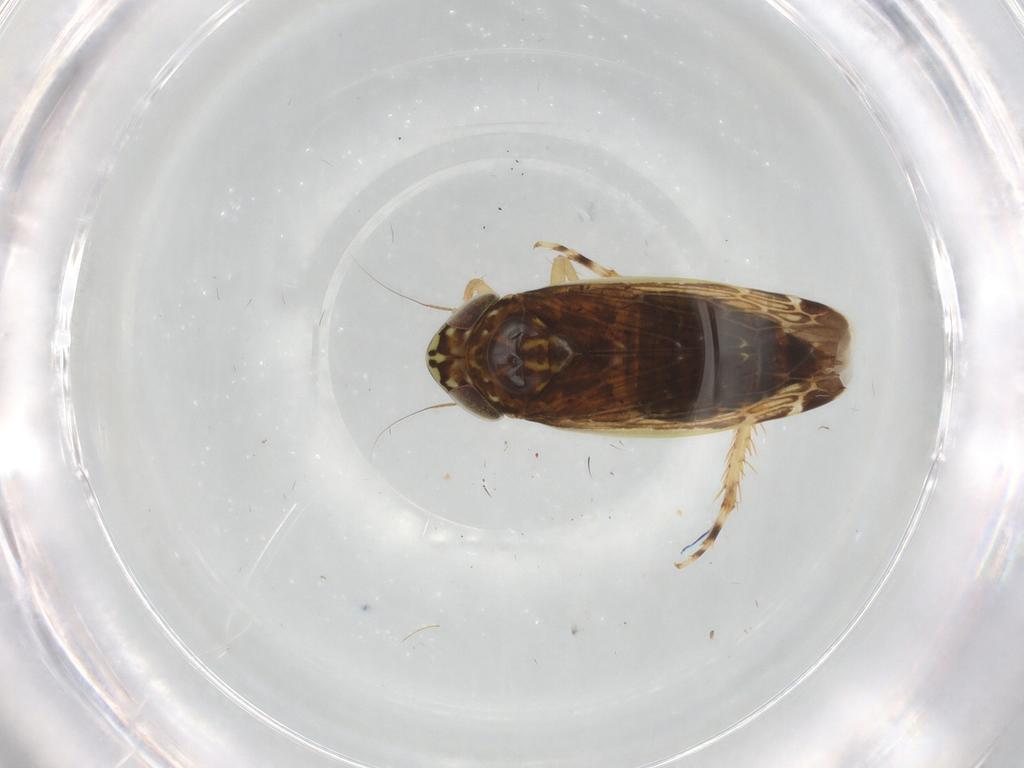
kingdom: Animalia
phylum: Arthropoda
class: Insecta
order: Hemiptera
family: Cicadellidae
